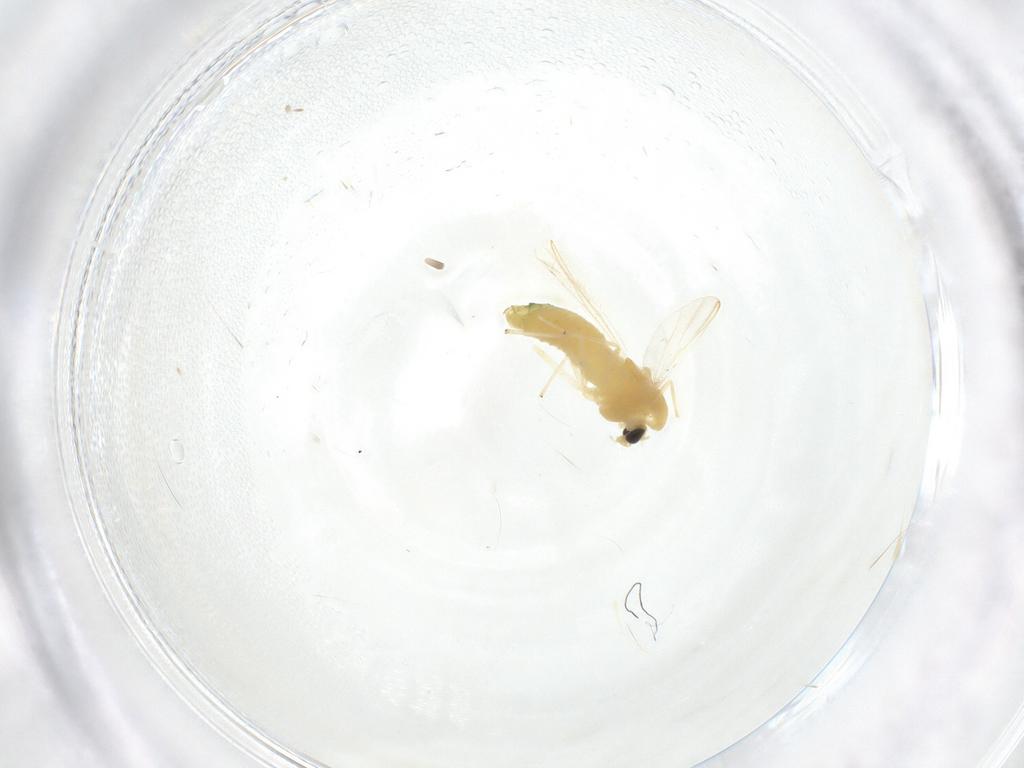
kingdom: Animalia
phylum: Arthropoda
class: Insecta
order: Diptera
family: Chironomidae
